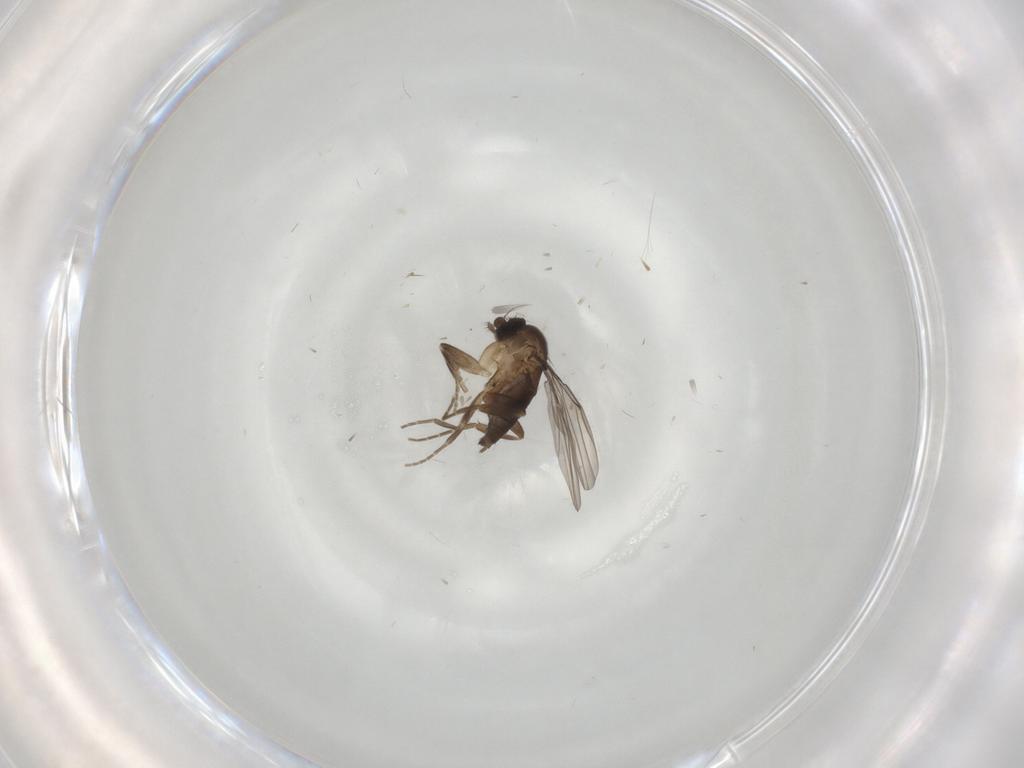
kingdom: Animalia
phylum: Arthropoda
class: Insecta
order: Diptera
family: Cecidomyiidae
